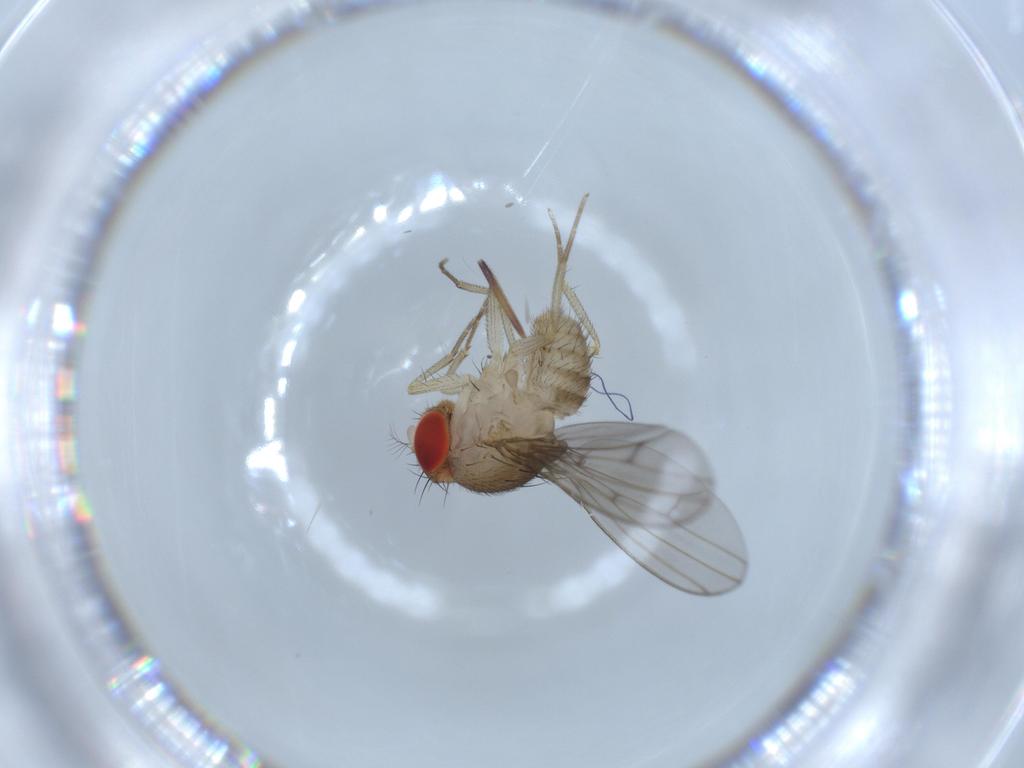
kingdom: Animalia
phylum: Arthropoda
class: Insecta
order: Diptera
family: Drosophilidae
